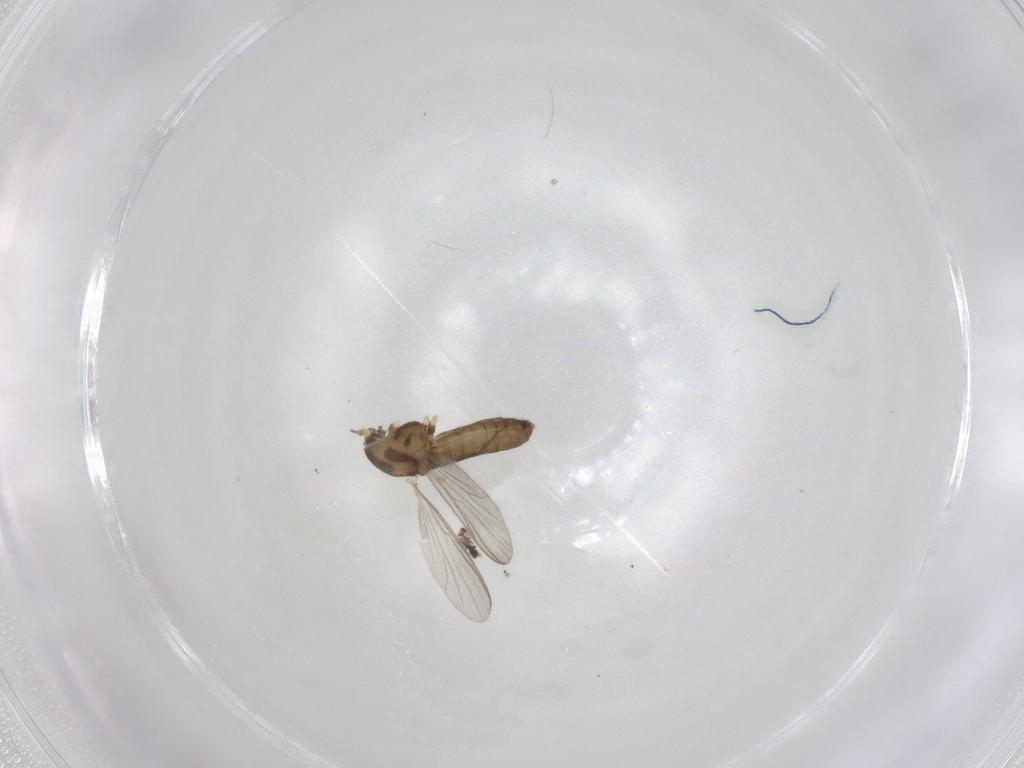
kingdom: Animalia
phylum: Arthropoda
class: Insecta
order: Diptera
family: Chironomidae
